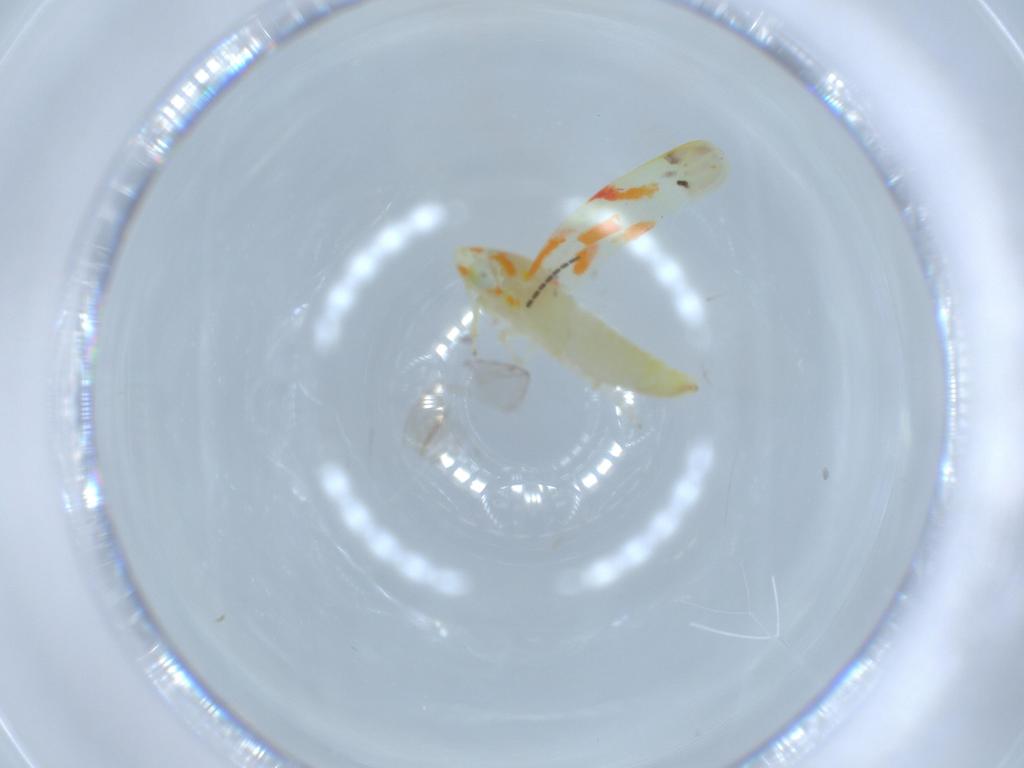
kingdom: Animalia
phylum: Arthropoda
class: Insecta
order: Hemiptera
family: Cicadellidae
